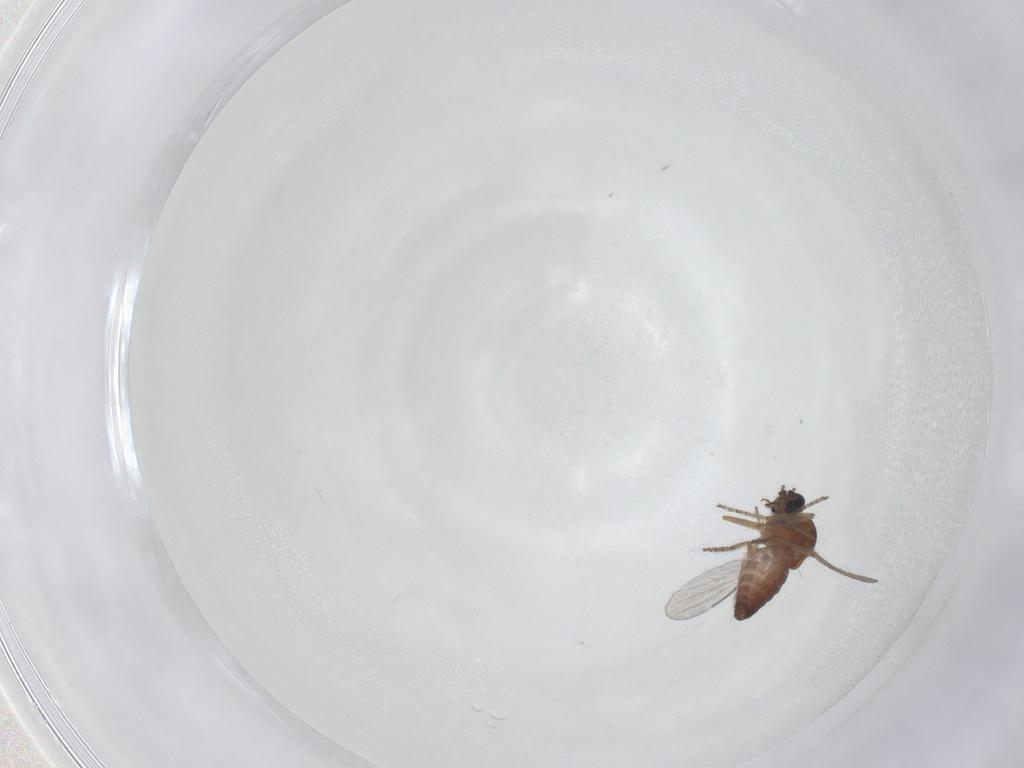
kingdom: Animalia
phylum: Arthropoda
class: Insecta
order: Diptera
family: Ceratopogonidae
